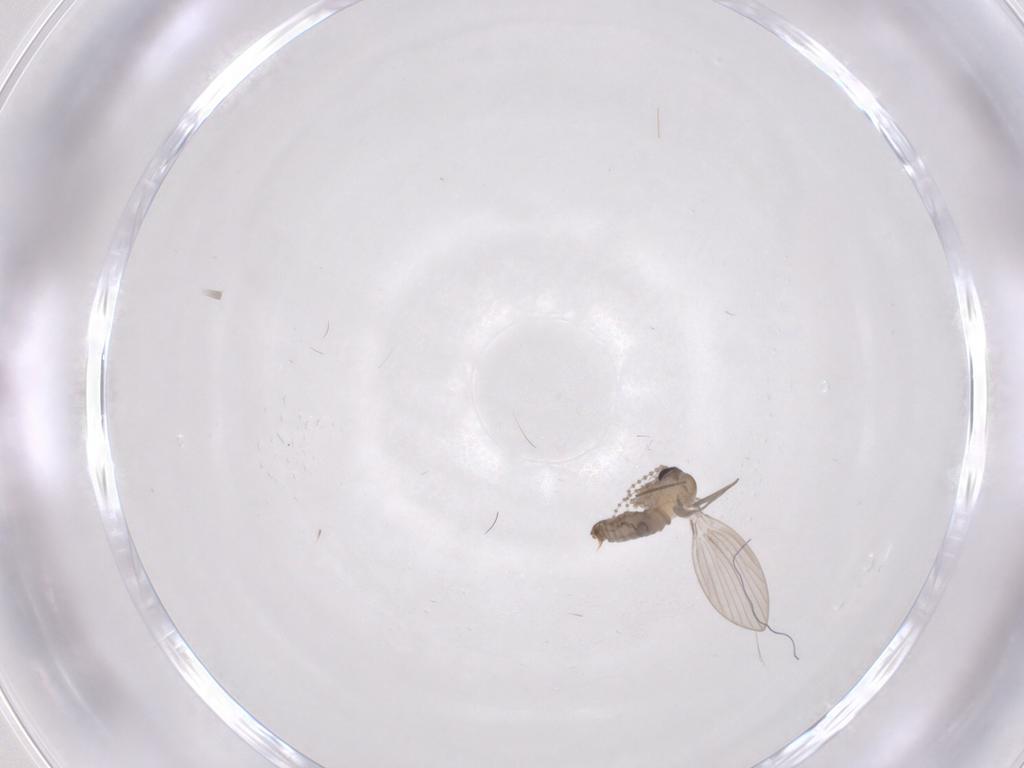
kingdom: Animalia
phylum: Arthropoda
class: Insecta
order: Diptera
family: Psychodidae
